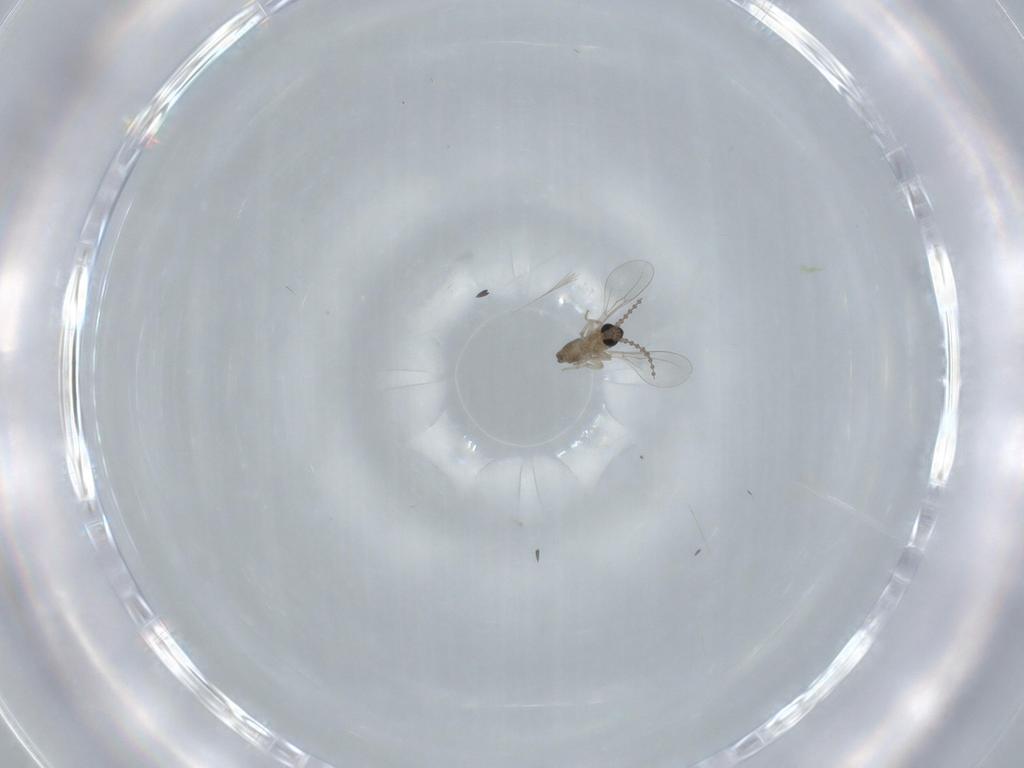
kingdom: Animalia
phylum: Arthropoda
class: Insecta
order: Diptera
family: Cecidomyiidae
